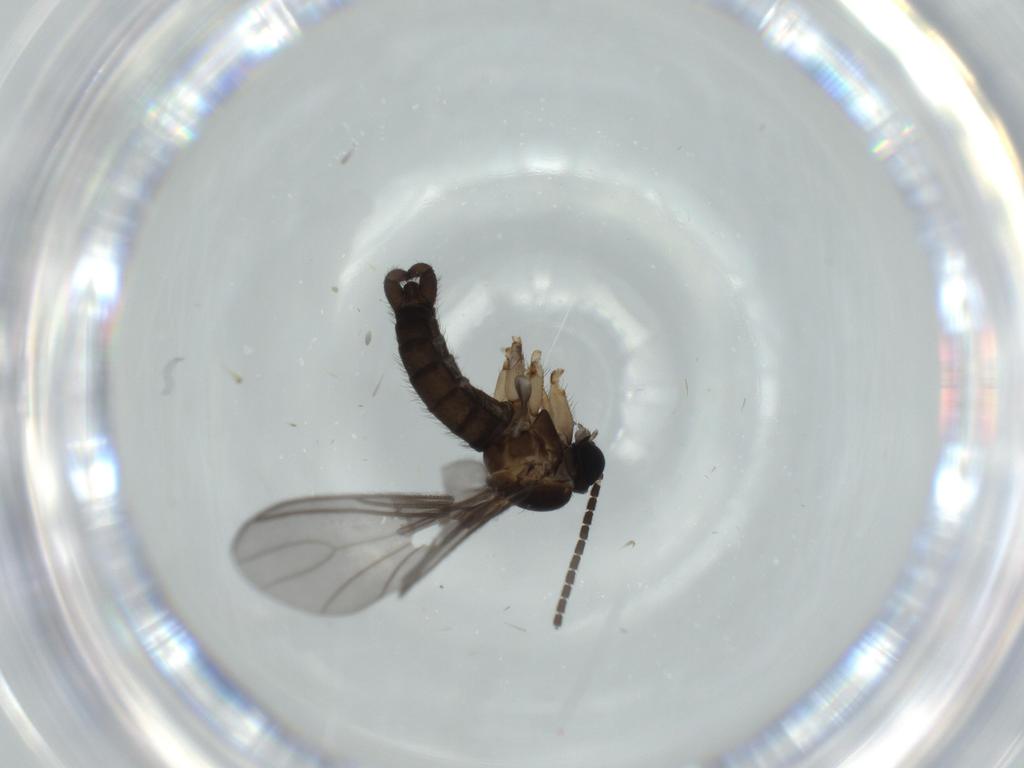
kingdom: Animalia
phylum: Arthropoda
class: Insecta
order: Diptera
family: Sciaridae
